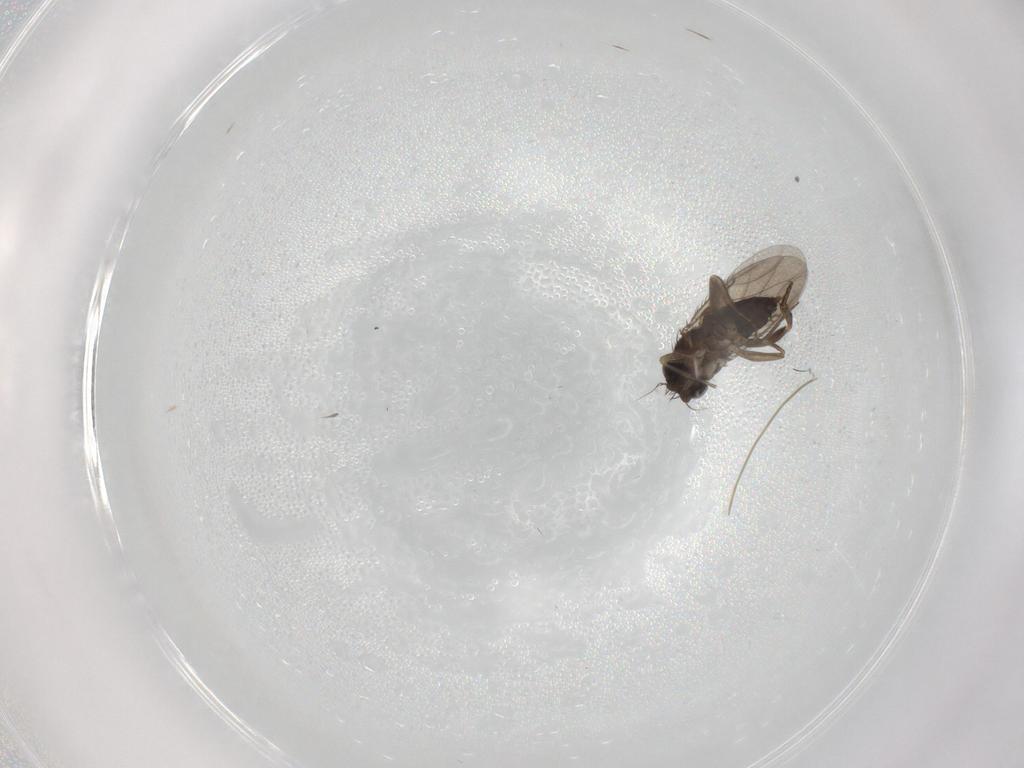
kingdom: Animalia
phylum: Arthropoda
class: Insecta
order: Diptera
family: Phoridae
